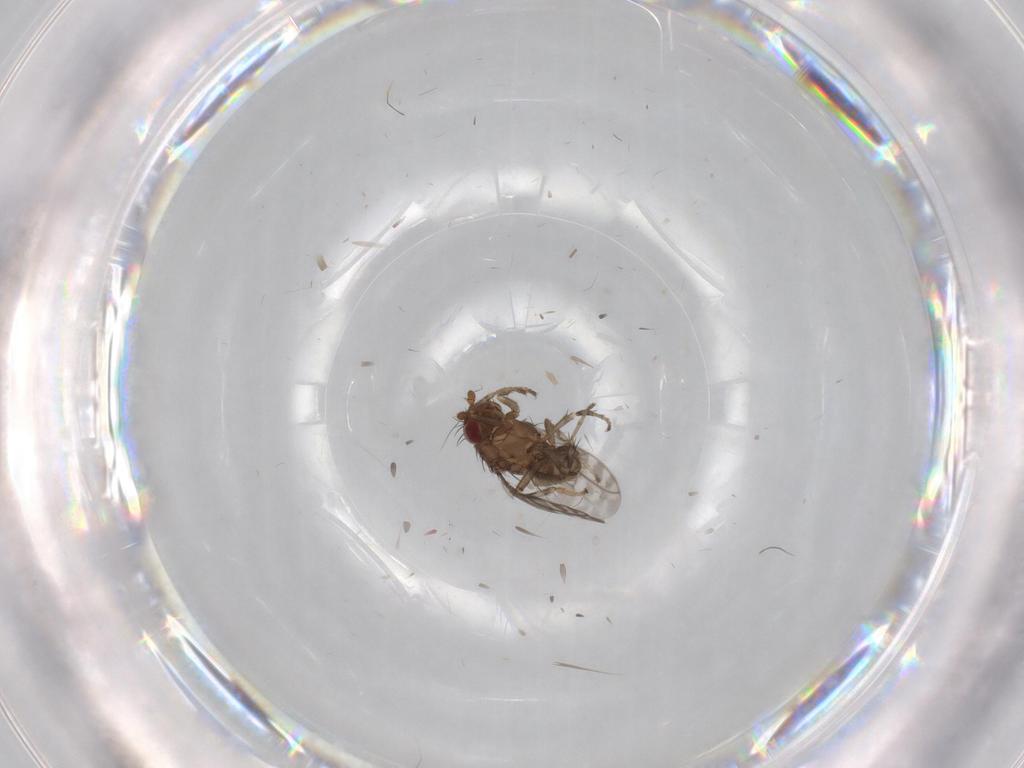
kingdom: Animalia
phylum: Arthropoda
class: Insecta
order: Diptera
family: Sphaeroceridae
